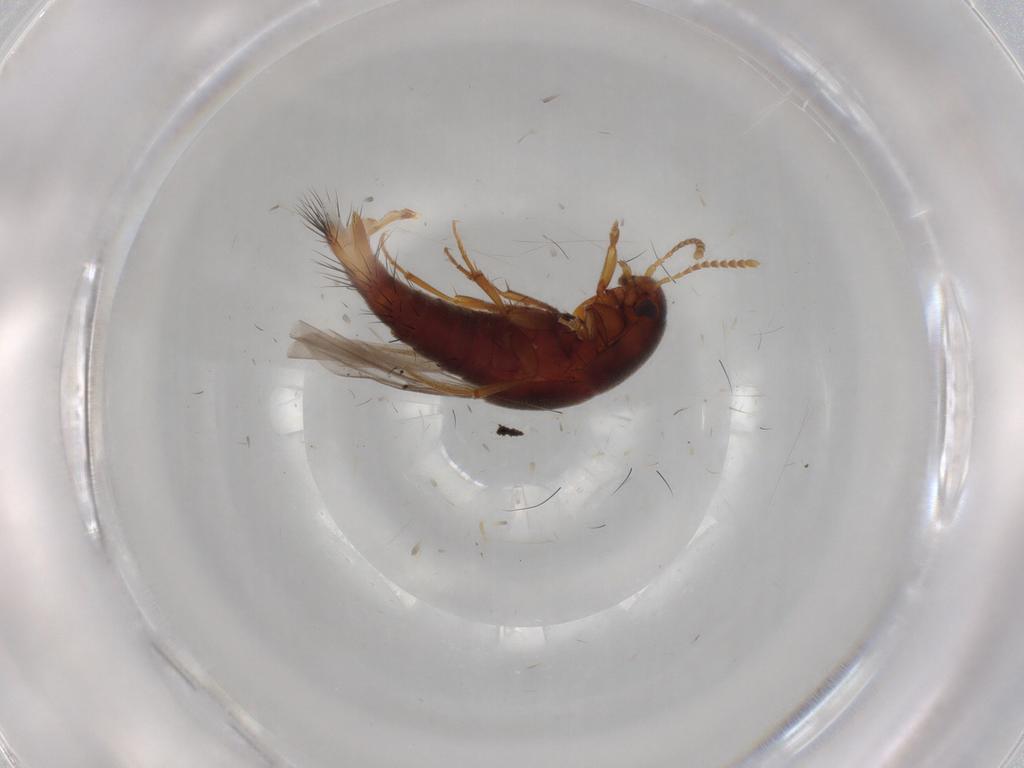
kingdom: Animalia
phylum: Arthropoda
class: Insecta
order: Coleoptera
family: Staphylinidae
